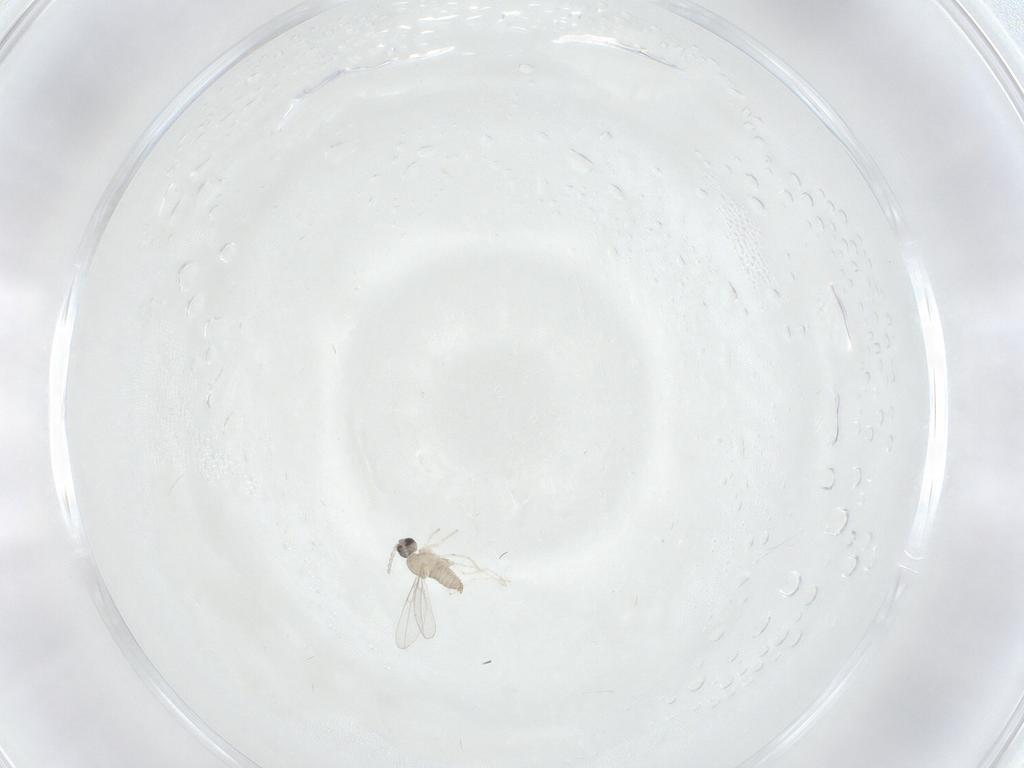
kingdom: Animalia
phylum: Arthropoda
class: Insecta
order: Diptera
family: Cecidomyiidae
